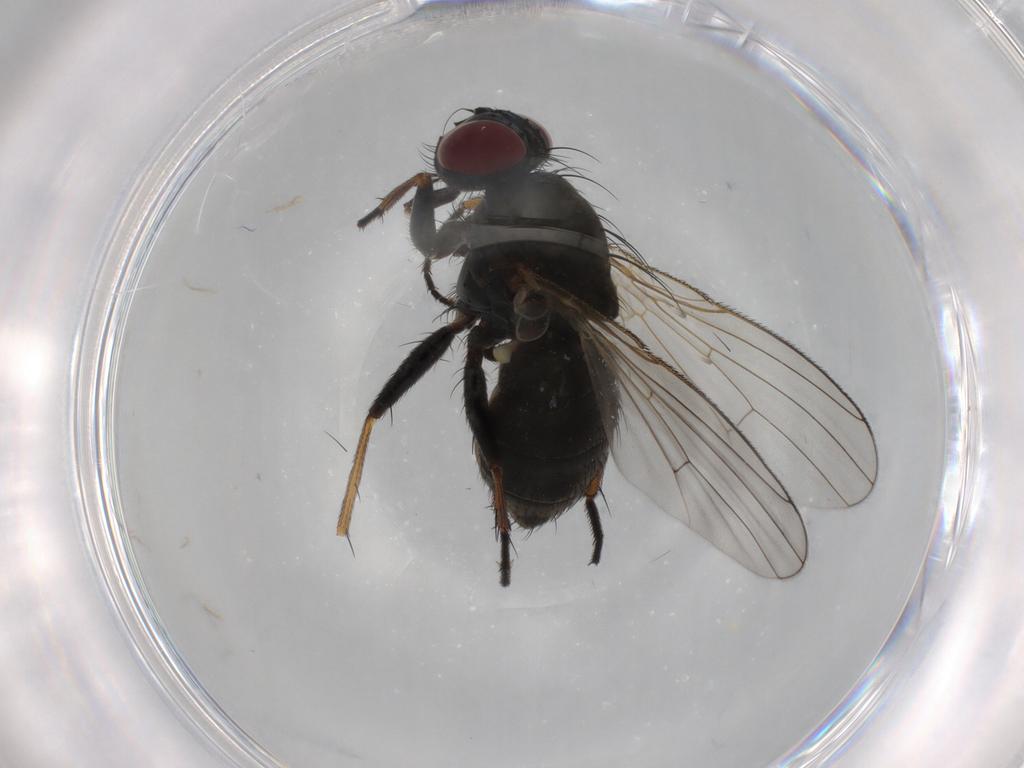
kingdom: Animalia
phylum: Arthropoda
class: Insecta
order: Diptera
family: Muscidae
